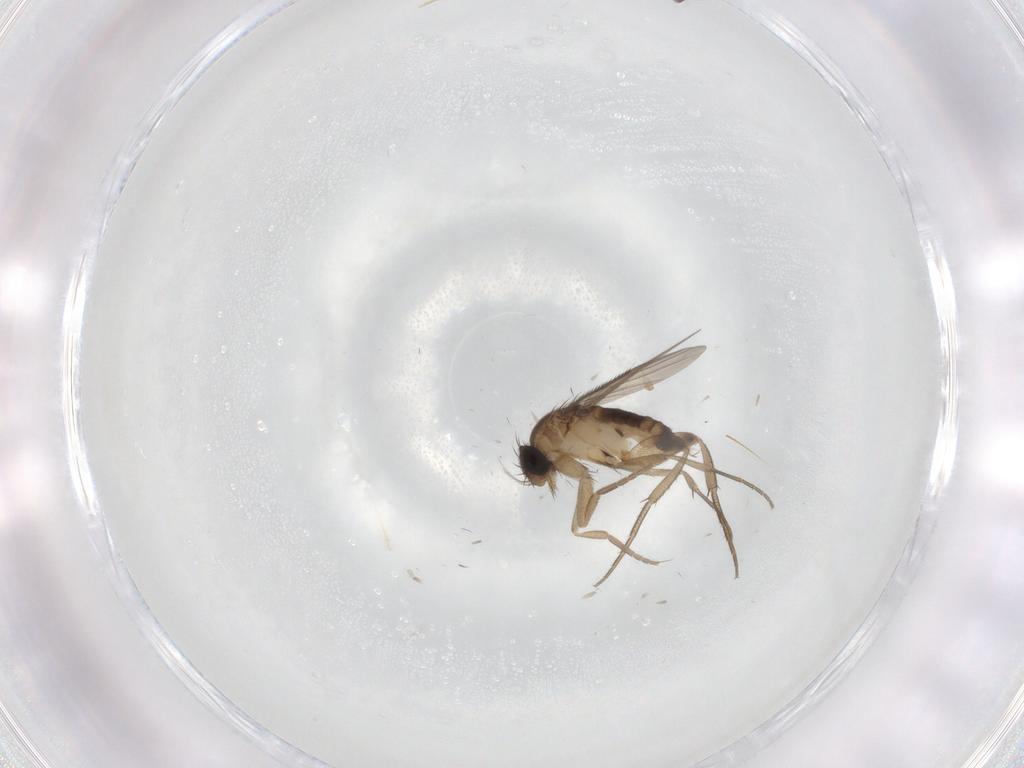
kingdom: Animalia
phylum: Arthropoda
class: Insecta
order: Diptera
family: Phoridae
